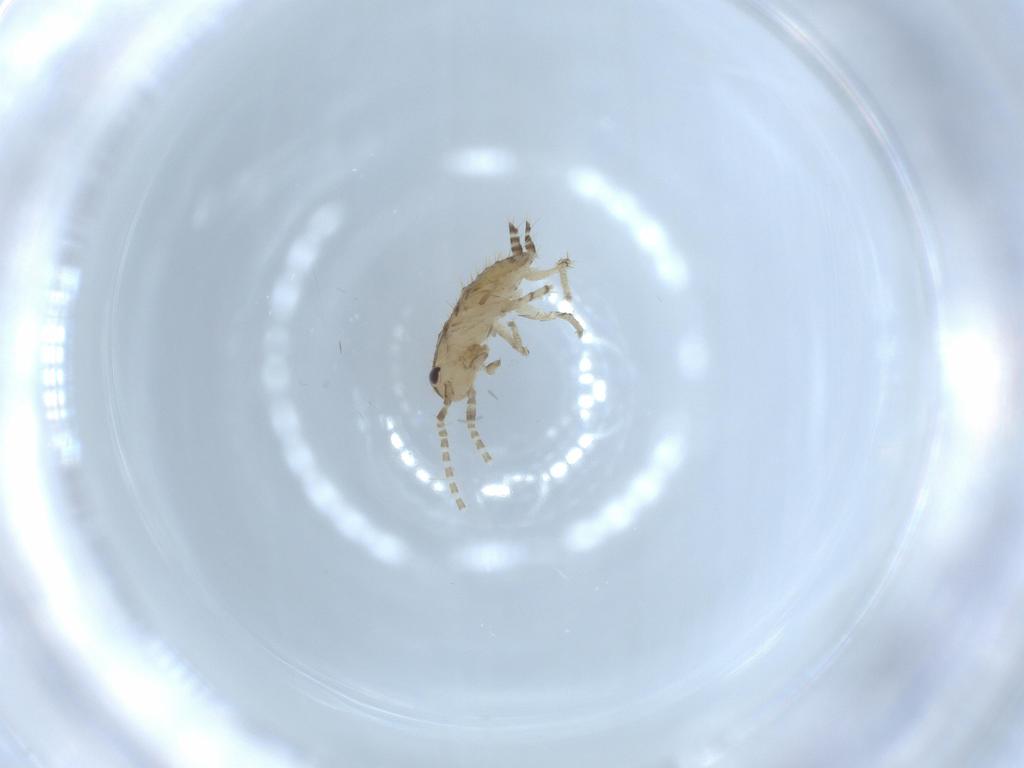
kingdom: Animalia
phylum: Arthropoda
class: Insecta
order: Blattodea
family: Ectobiidae
